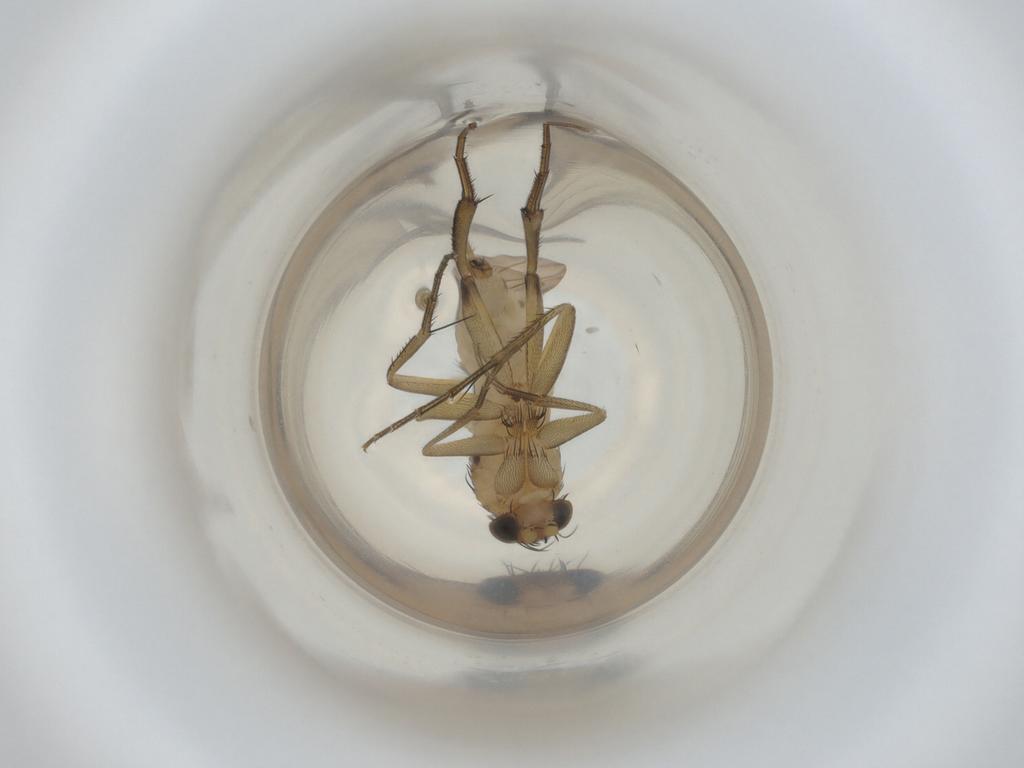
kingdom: Animalia
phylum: Arthropoda
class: Insecta
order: Diptera
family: Phoridae
